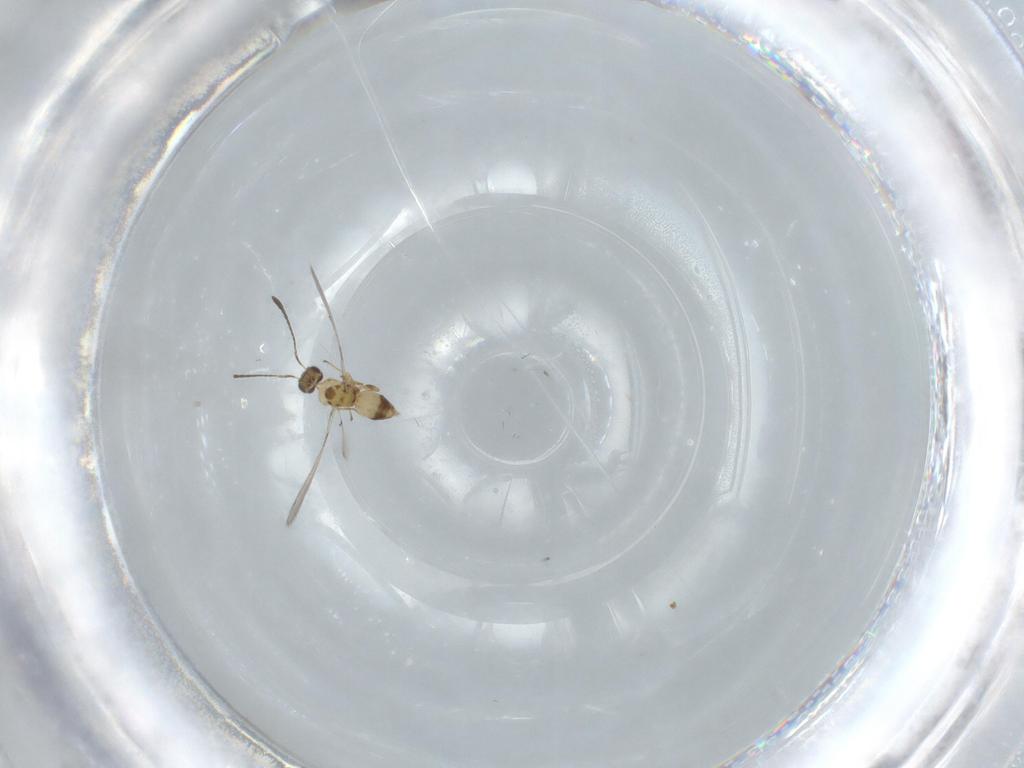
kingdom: Animalia
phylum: Arthropoda
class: Insecta
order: Hymenoptera
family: Mymaridae
